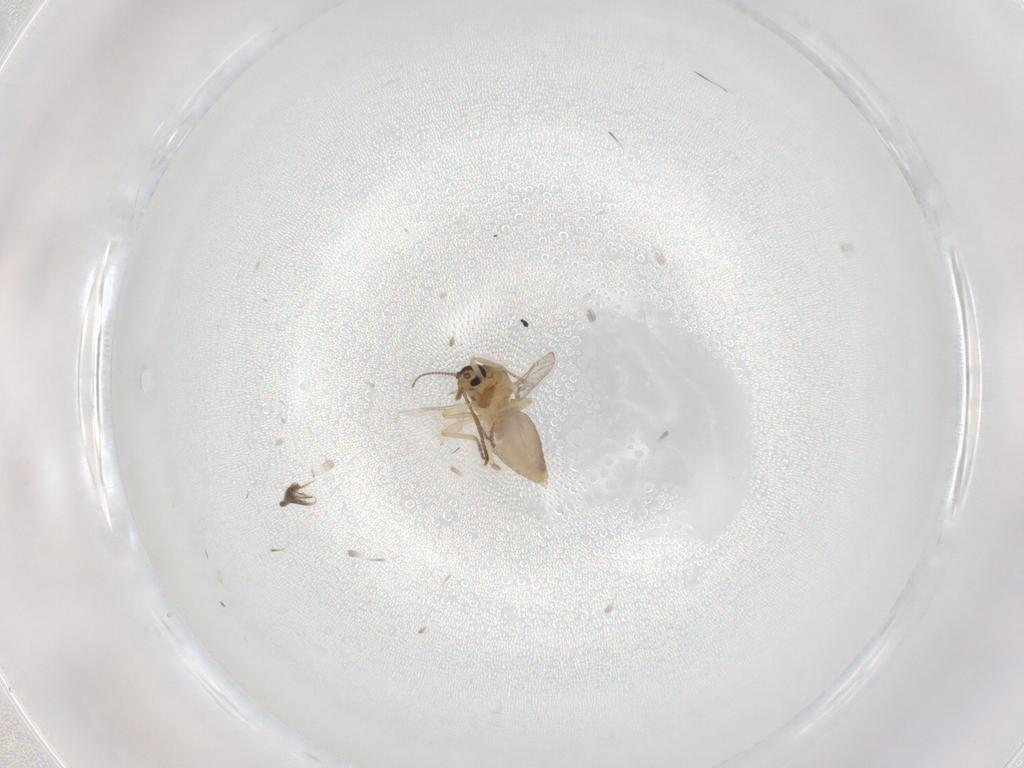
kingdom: Animalia
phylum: Arthropoda
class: Insecta
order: Diptera
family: Ceratopogonidae
